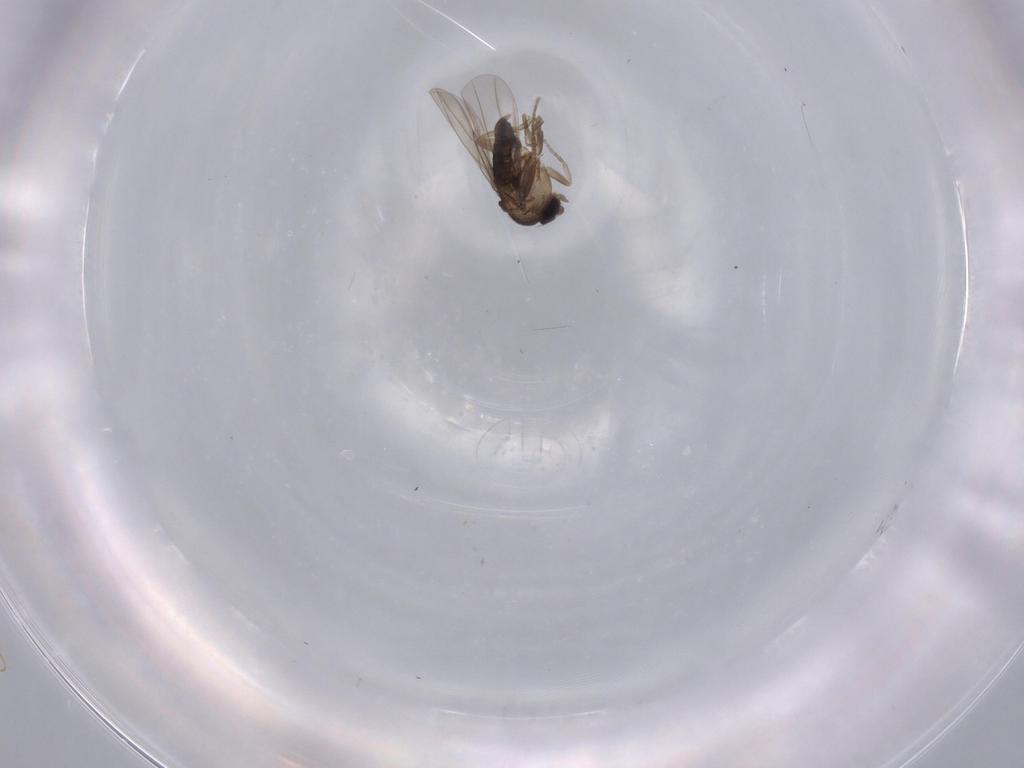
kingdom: Animalia
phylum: Arthropoda
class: Insecta
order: Diptera
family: Phoridae
